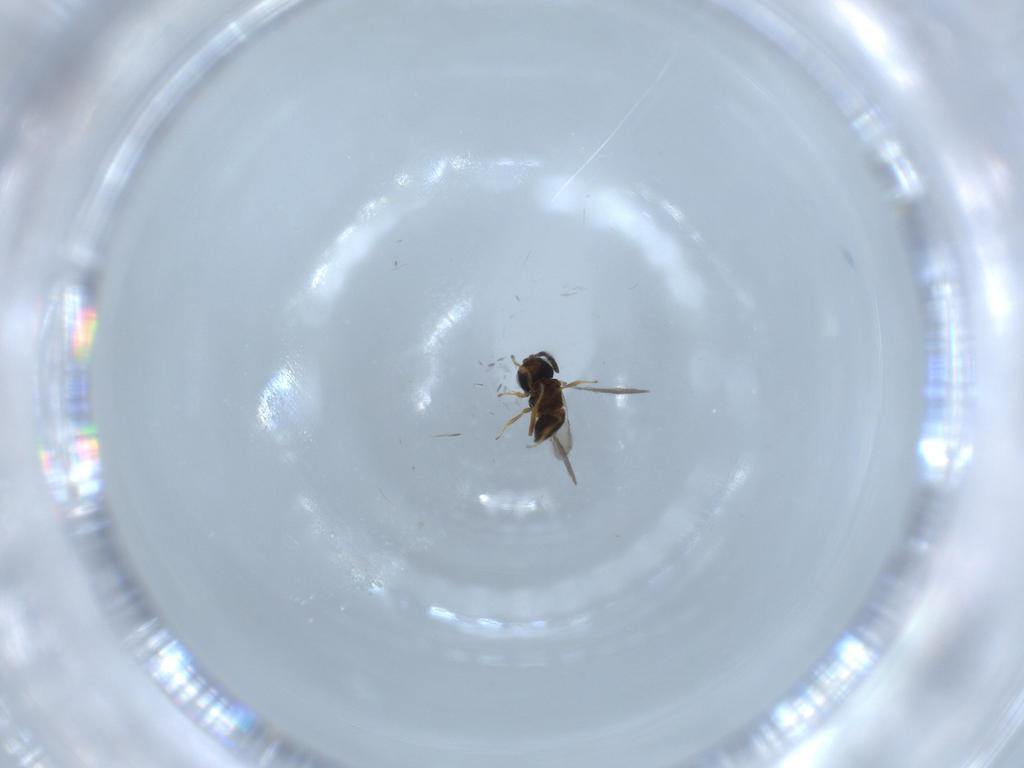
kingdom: Animalia
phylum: Arthropoda
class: Insecta
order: Hymenoptera
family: Scelionidae
